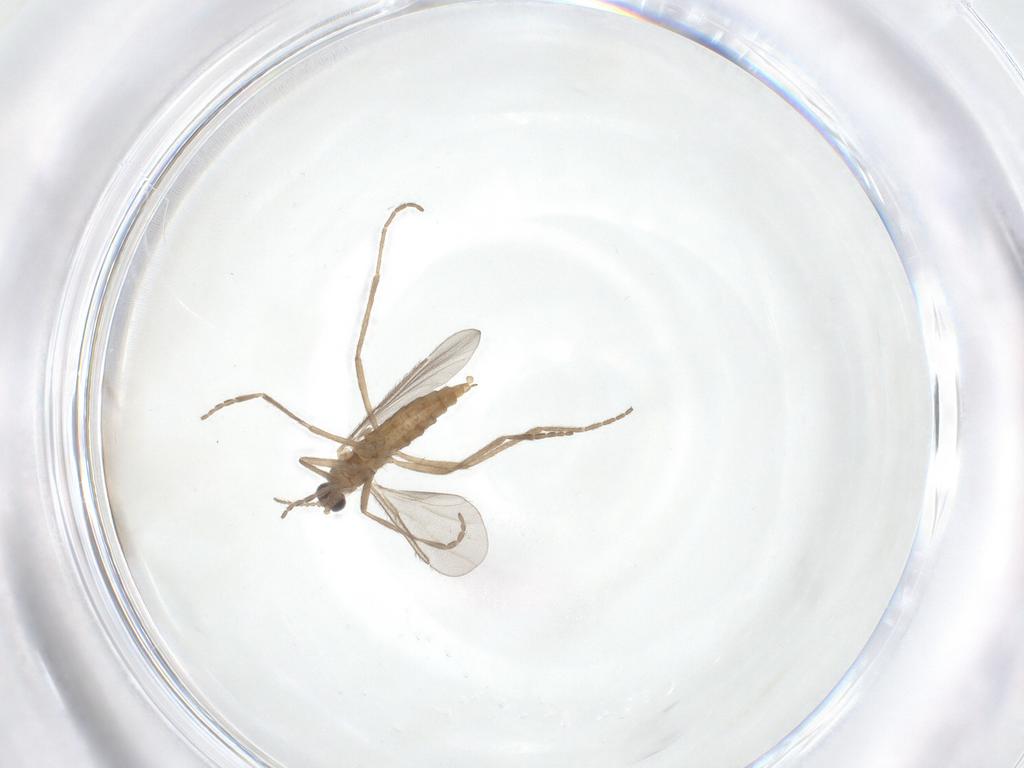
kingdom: Animalia
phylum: Arthropoda
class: Insecta
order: Diptera
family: Cecidomyiidae
